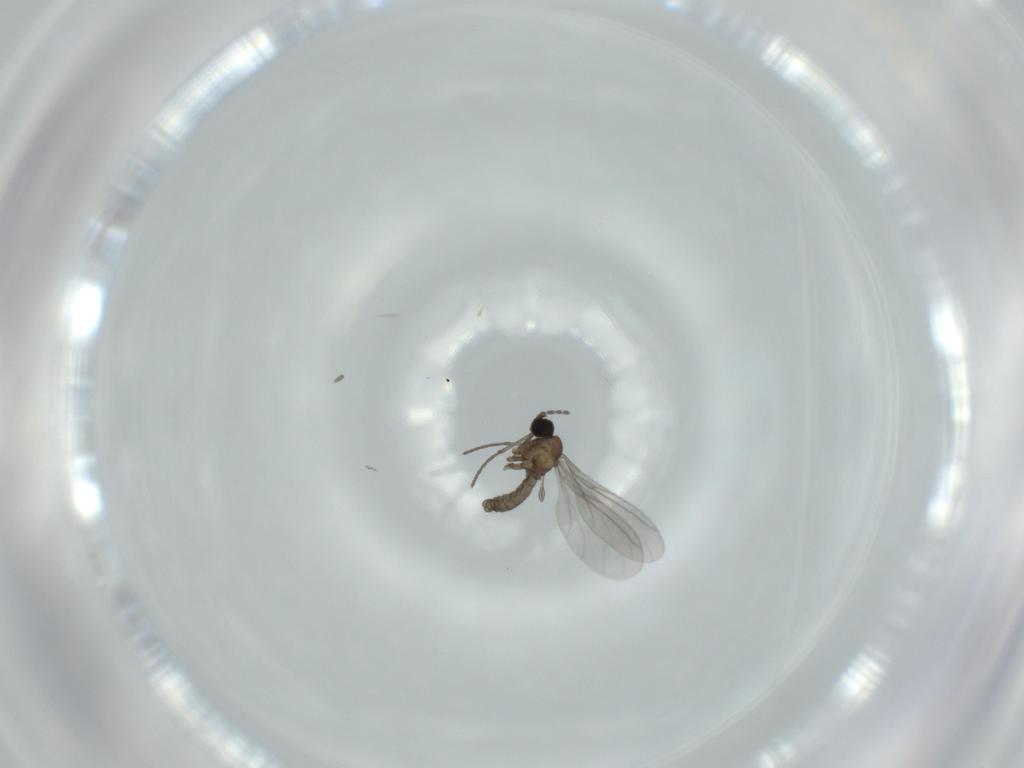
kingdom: Animalia
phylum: Arthropoda
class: Insecta
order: Diptera
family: Sciaridae
